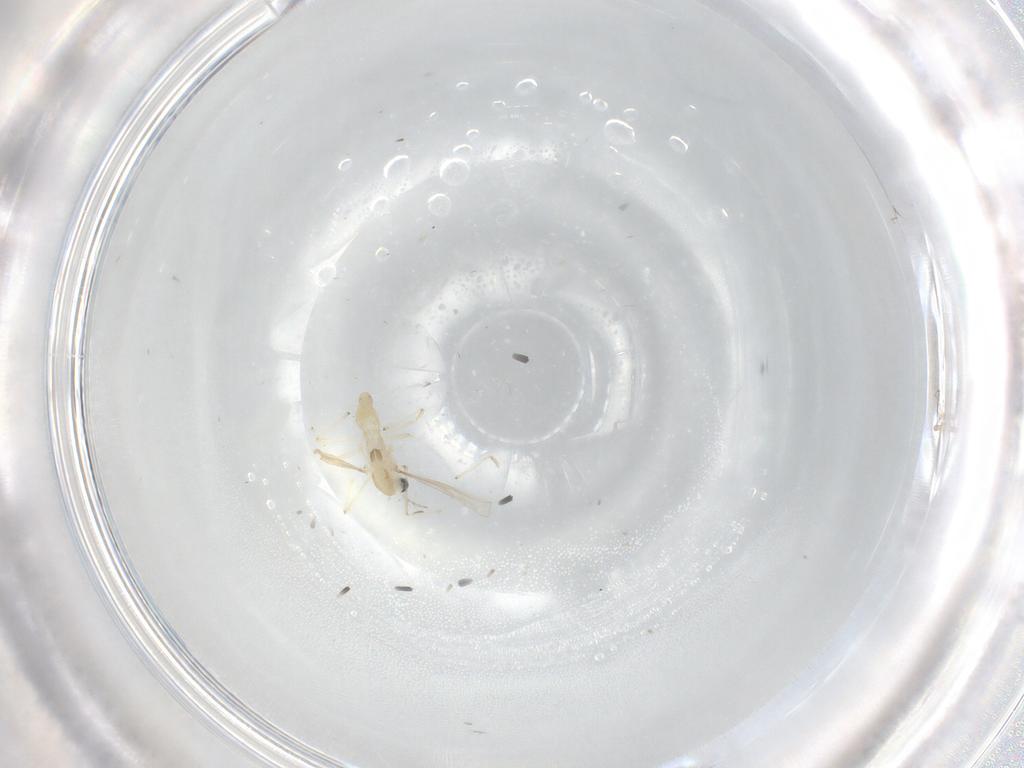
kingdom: Animalia
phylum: Arthropoda
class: Insecta
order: Diptera
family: Chironomidae
